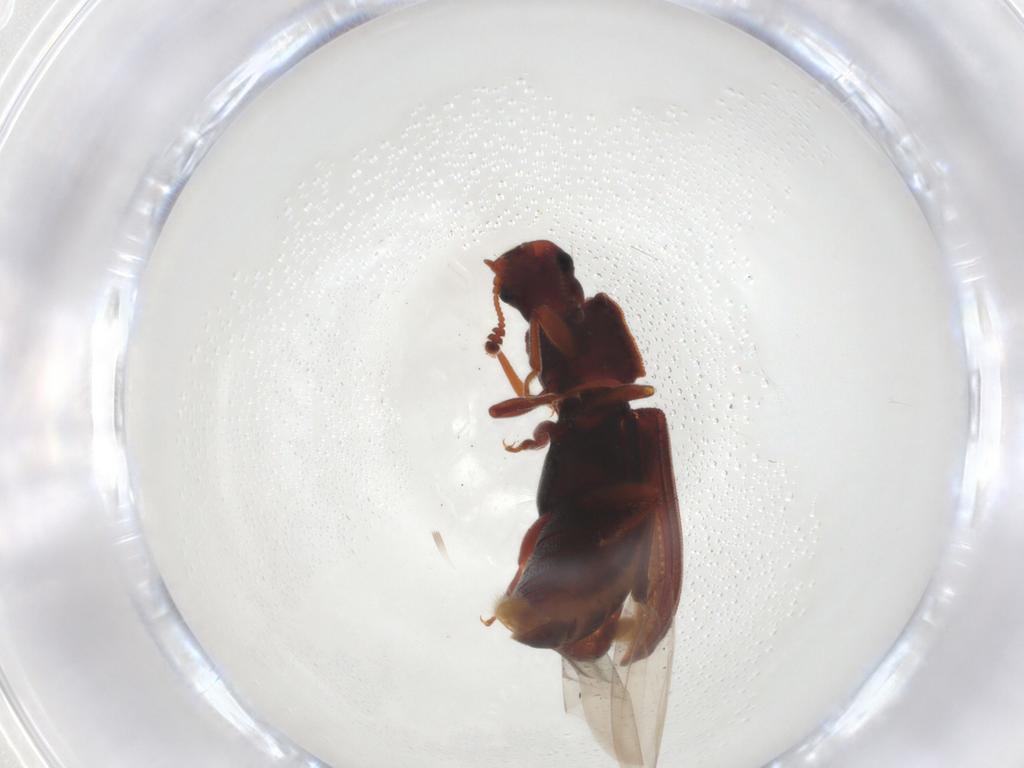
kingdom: Animalia
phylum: Arthropoda
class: Insecta
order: Coleoptera
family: Zopheridae
